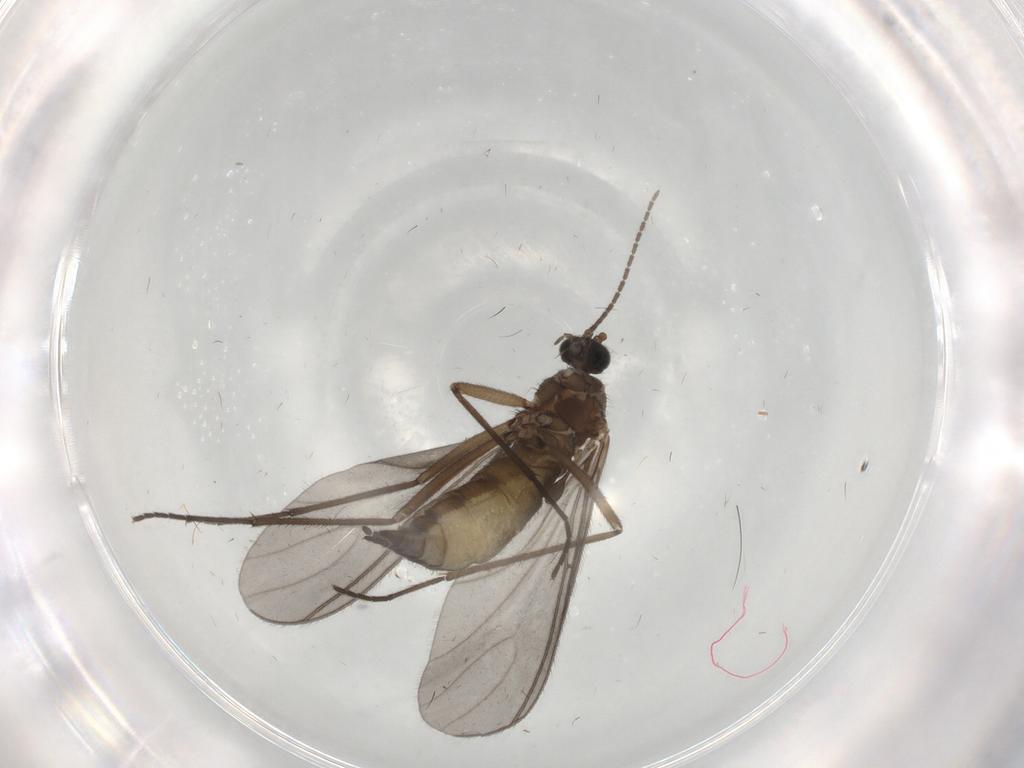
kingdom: Animalia
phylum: Arthropoda
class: Insecta
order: Diptera
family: Sciaridae
